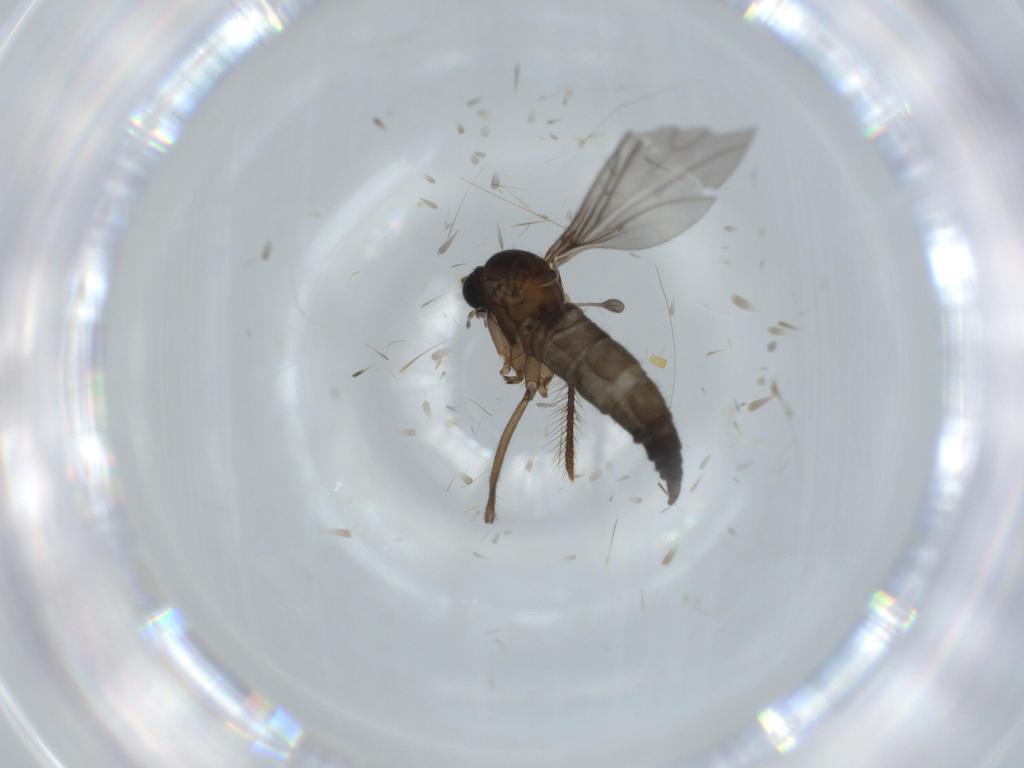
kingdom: Animalia
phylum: Arthropoda
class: Insecta
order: Diptera
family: Sciaridae
